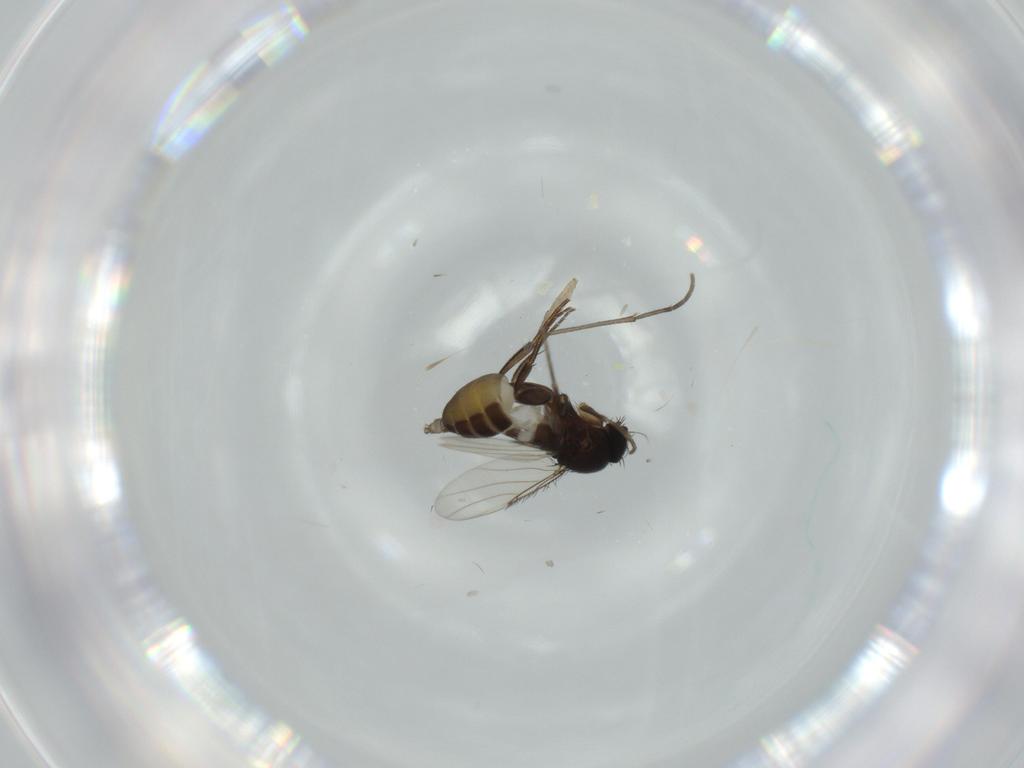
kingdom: Animalia
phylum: Arthropoda
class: Insecta
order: Diptera
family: Phoridae
